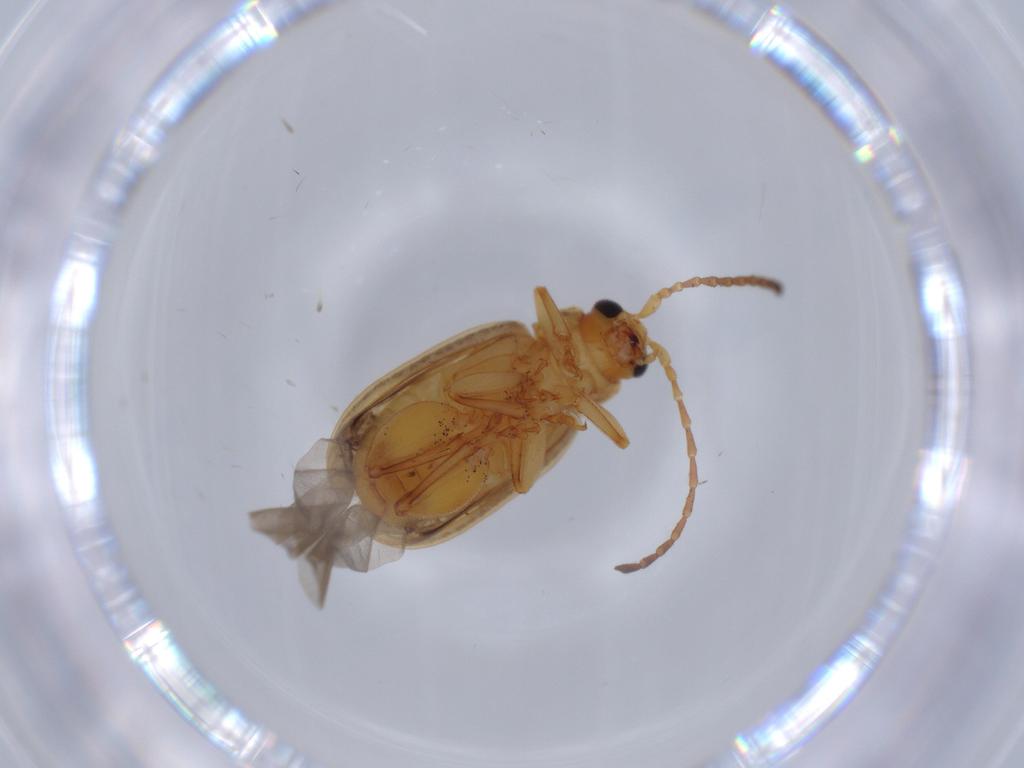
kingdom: Animalia
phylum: Arthropoda
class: Insecta
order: Coleoptera
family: Chrysomelidae
